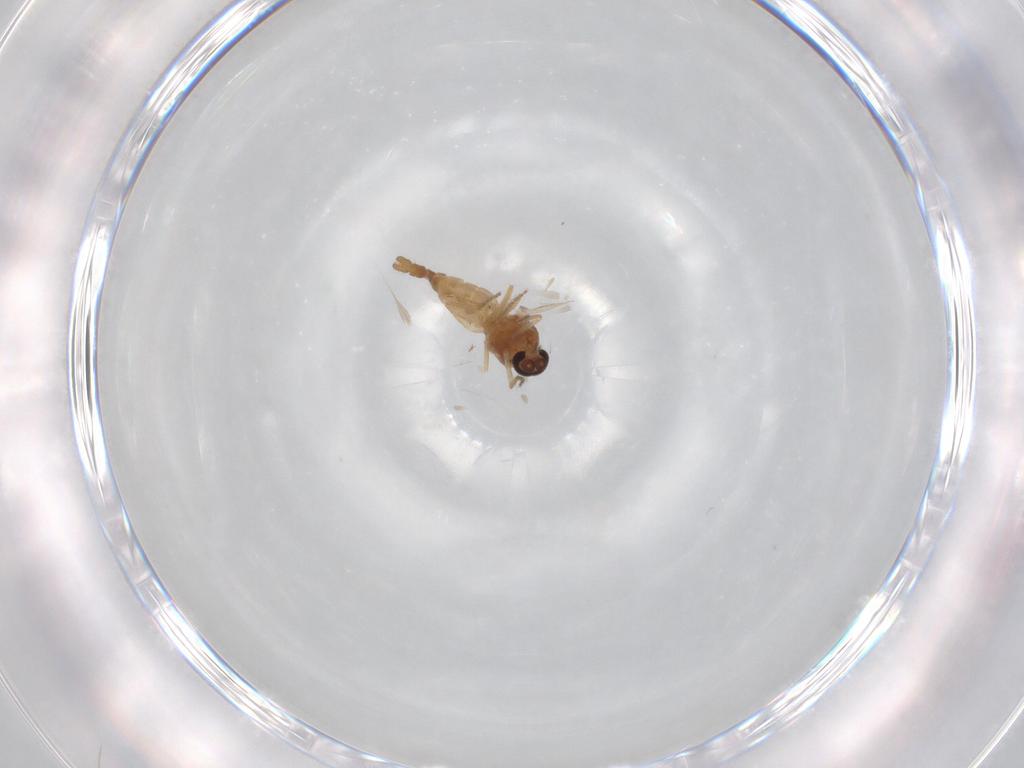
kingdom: Animalia
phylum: Arthropoda
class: Insecta
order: Diptera
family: Ceratopogonidae
